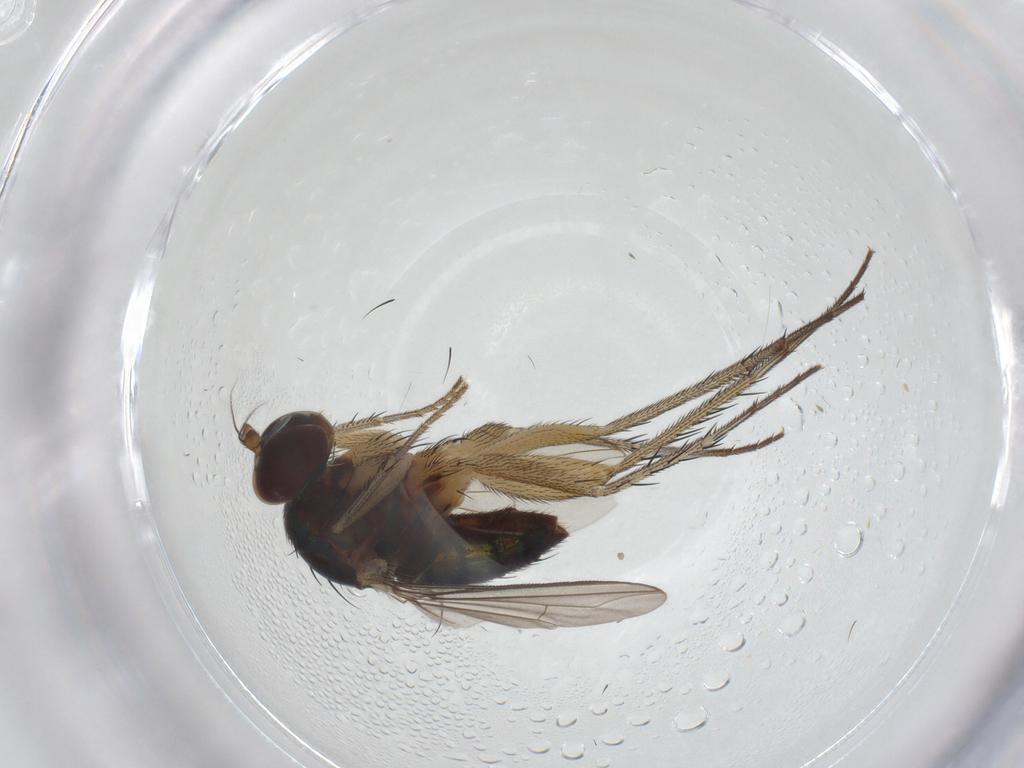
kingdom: Animalia
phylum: Arthropoda
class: Insecta
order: Diptera
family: Dolichopodidae
